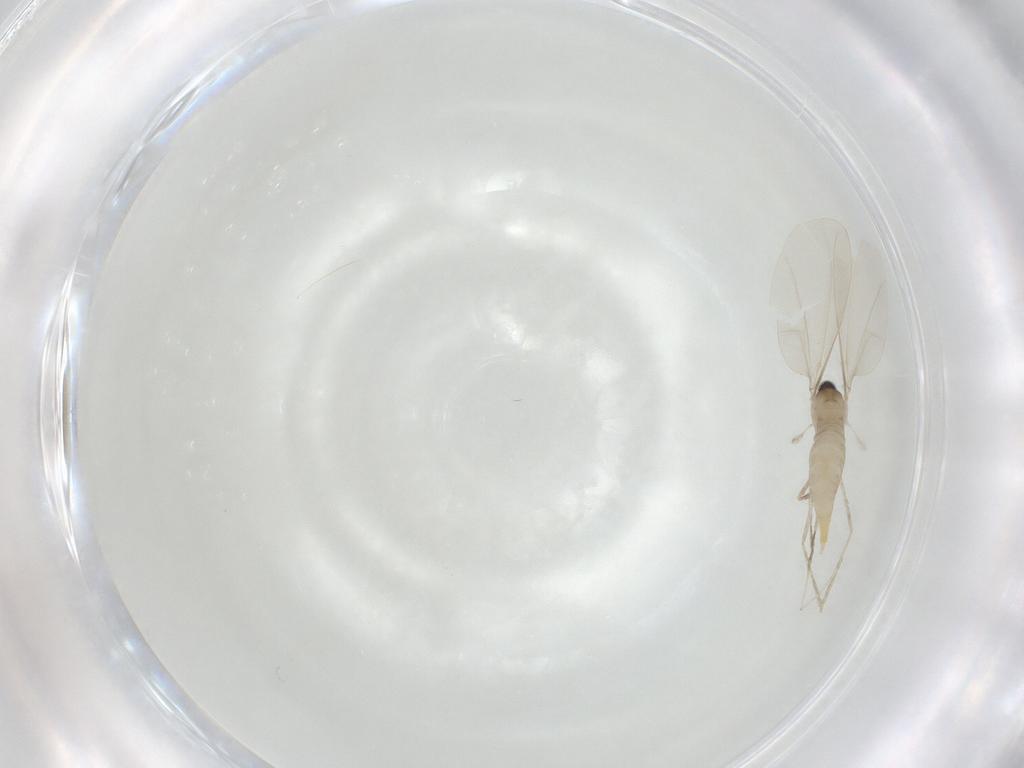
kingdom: Animalia
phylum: Arthropoda
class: Insecta
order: Diptera
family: Cecidomyiidae
